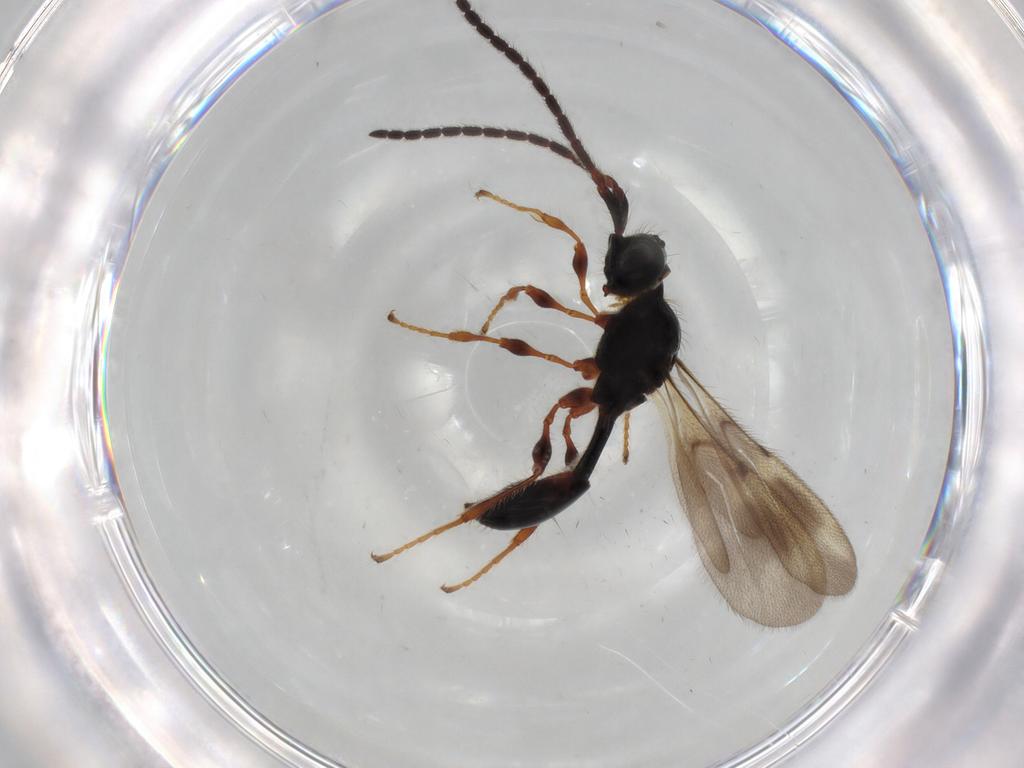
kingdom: Animalia
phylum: Arthropoda
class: Insecta
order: Hymenoptera
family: Diapriidae
